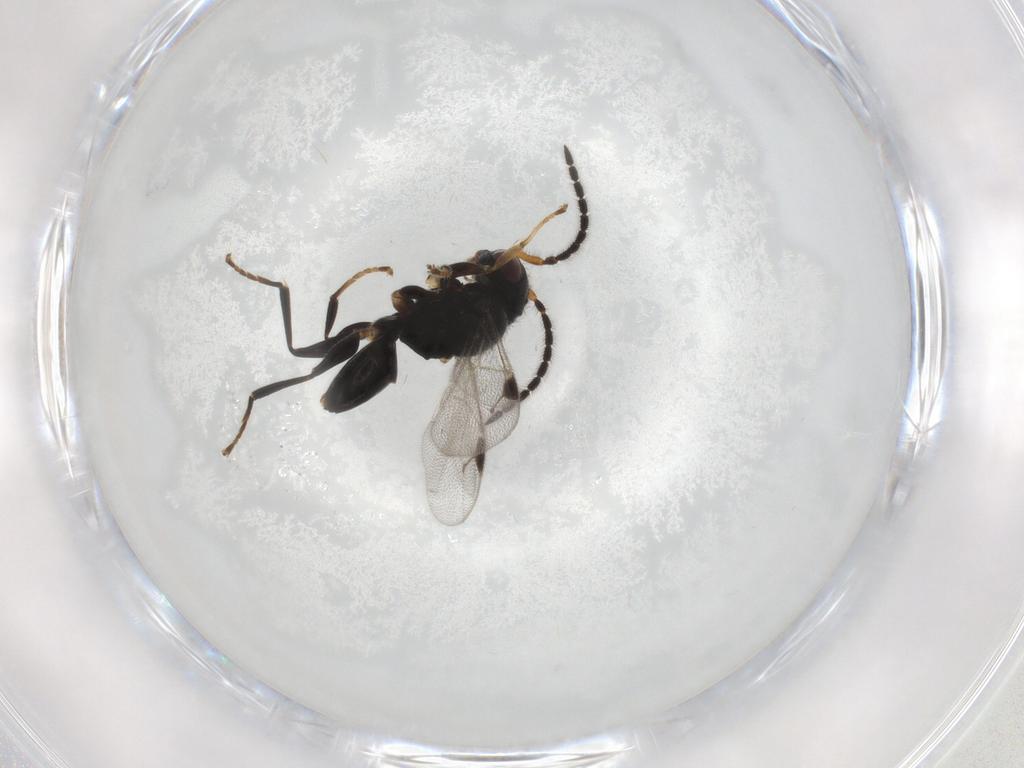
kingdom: Animalia
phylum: Arthropoda
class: Insecta
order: Hymenoptera
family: Dryinidae
